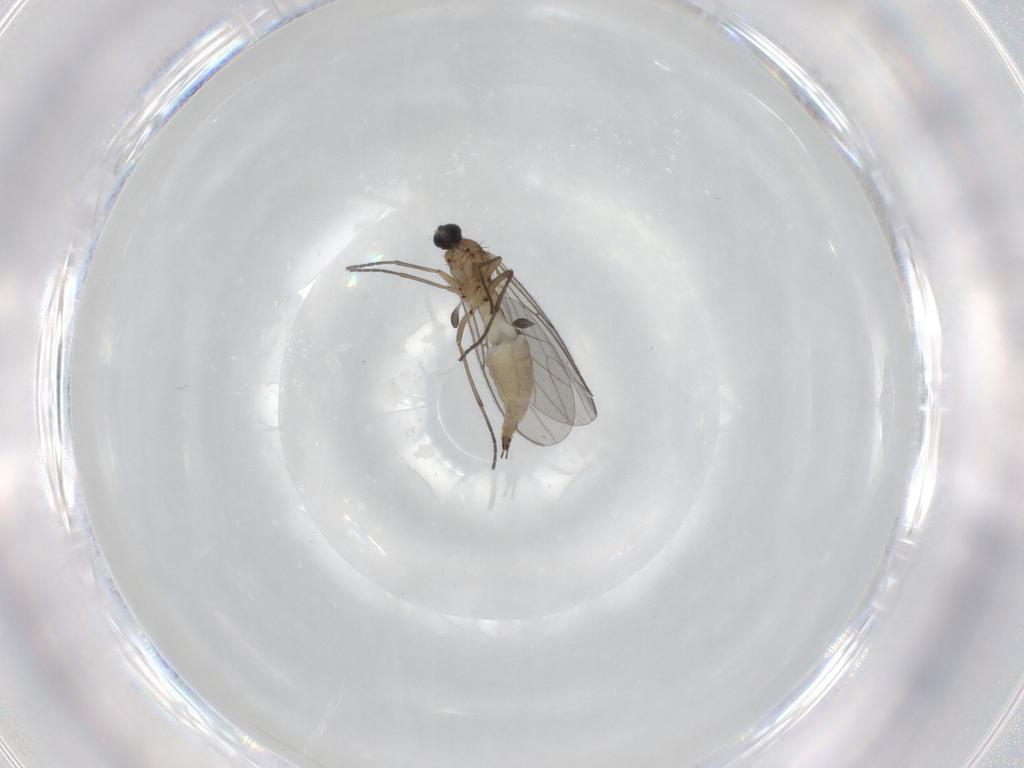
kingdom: Animalia
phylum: Arthropoda
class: Insecta
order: Diptera
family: Sciaridae
